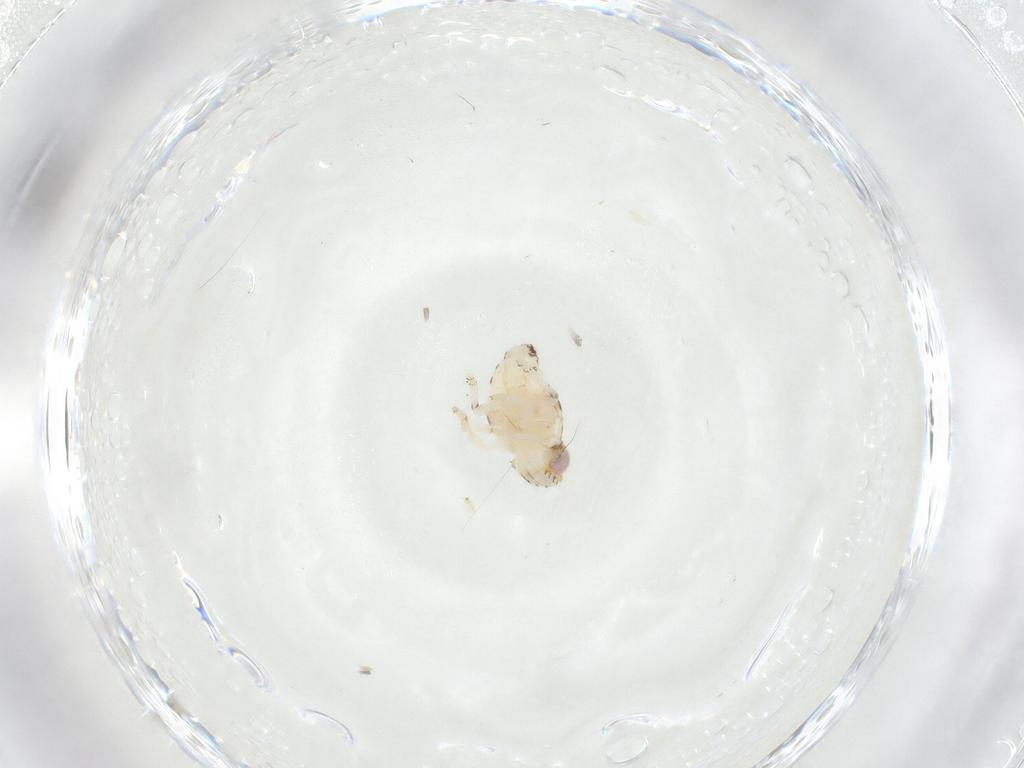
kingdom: Animalia
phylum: Arthropoda
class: Insecta
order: Hemiptera
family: Nogodinidae
